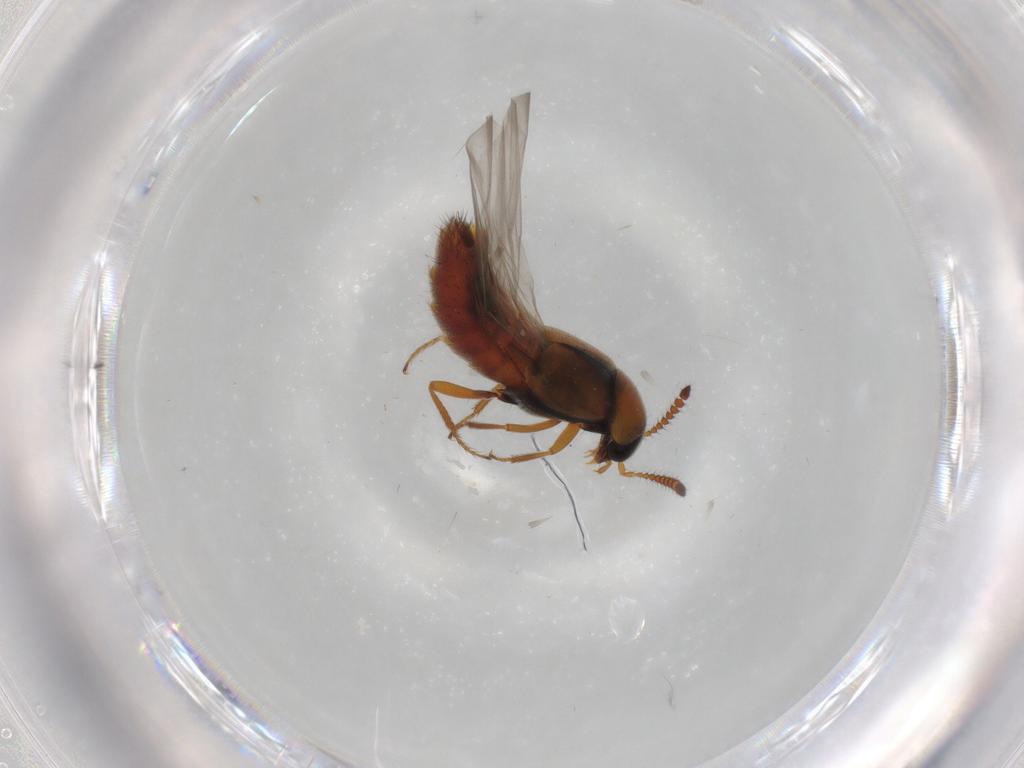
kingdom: Animalia
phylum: Arthropoda
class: Insecta
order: Coleoptera
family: Staphylinidae
